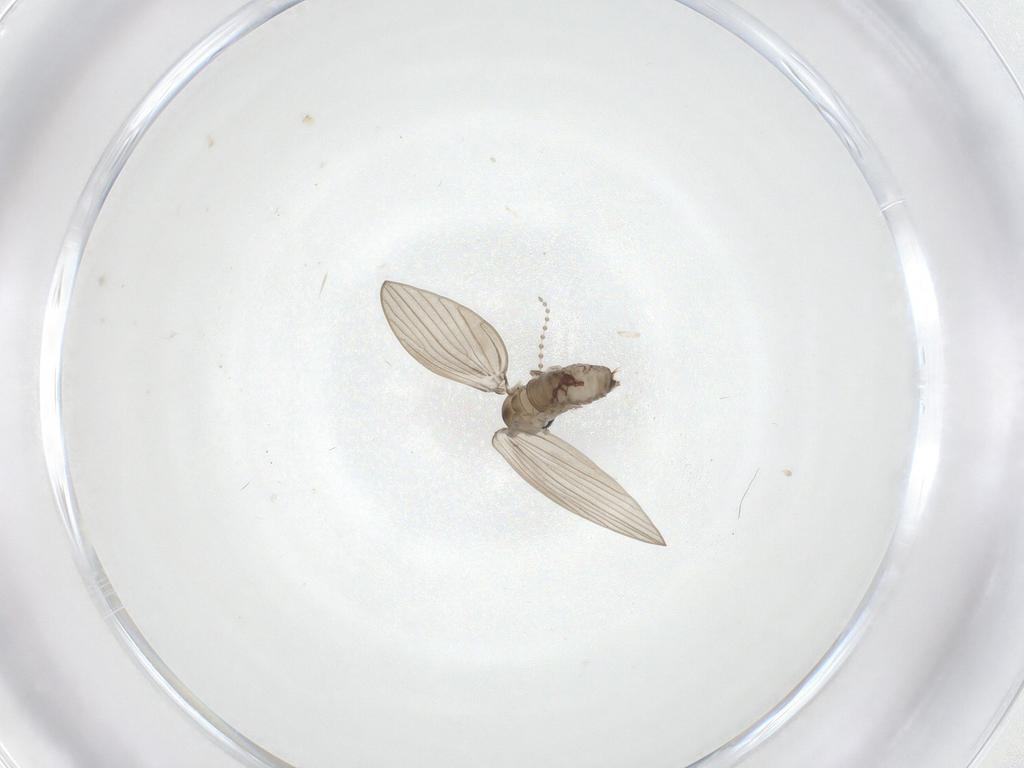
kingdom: Animalia
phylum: Arthropoda
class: Insecta
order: Diptera
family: Psychodidae
